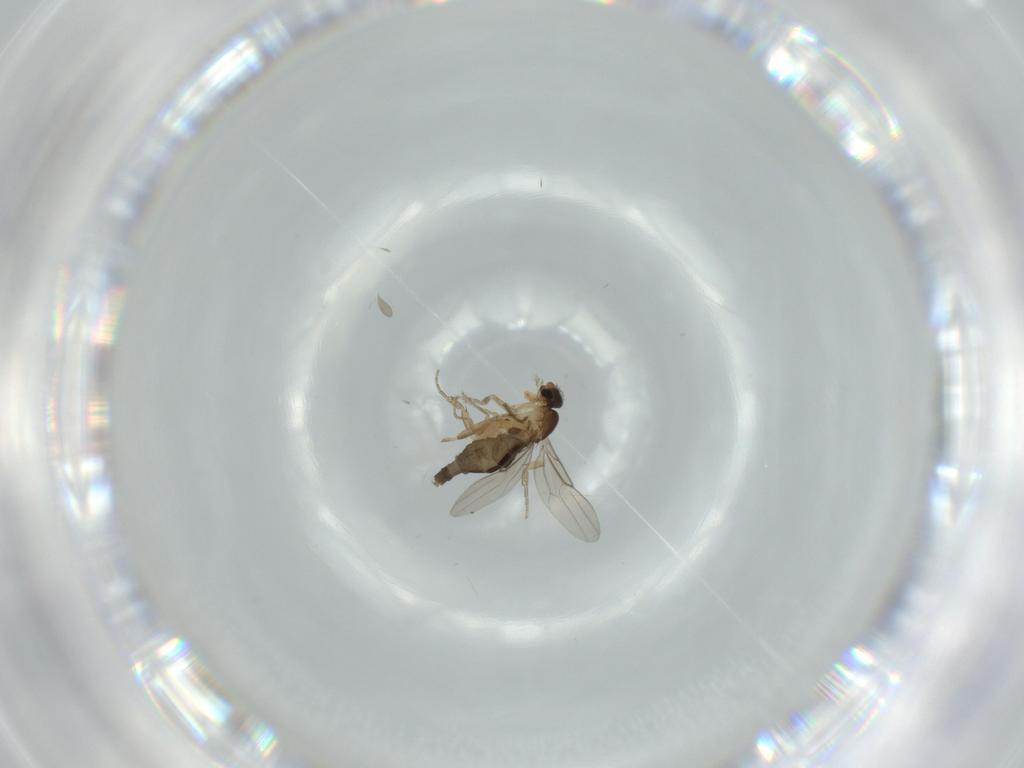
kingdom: Animalia
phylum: Arthropoda
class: Insecta
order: Diptera
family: Phoridae
